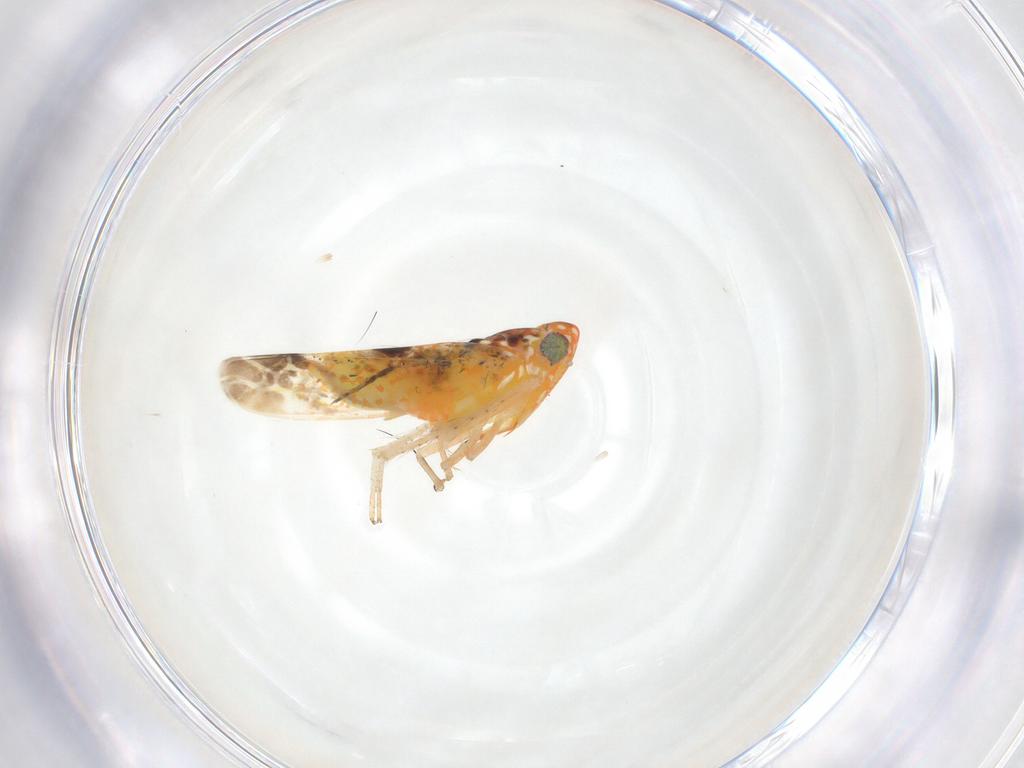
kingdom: Animalia
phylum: Arthropoda
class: Insecta
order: Hemiptera
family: Cicadellidae
